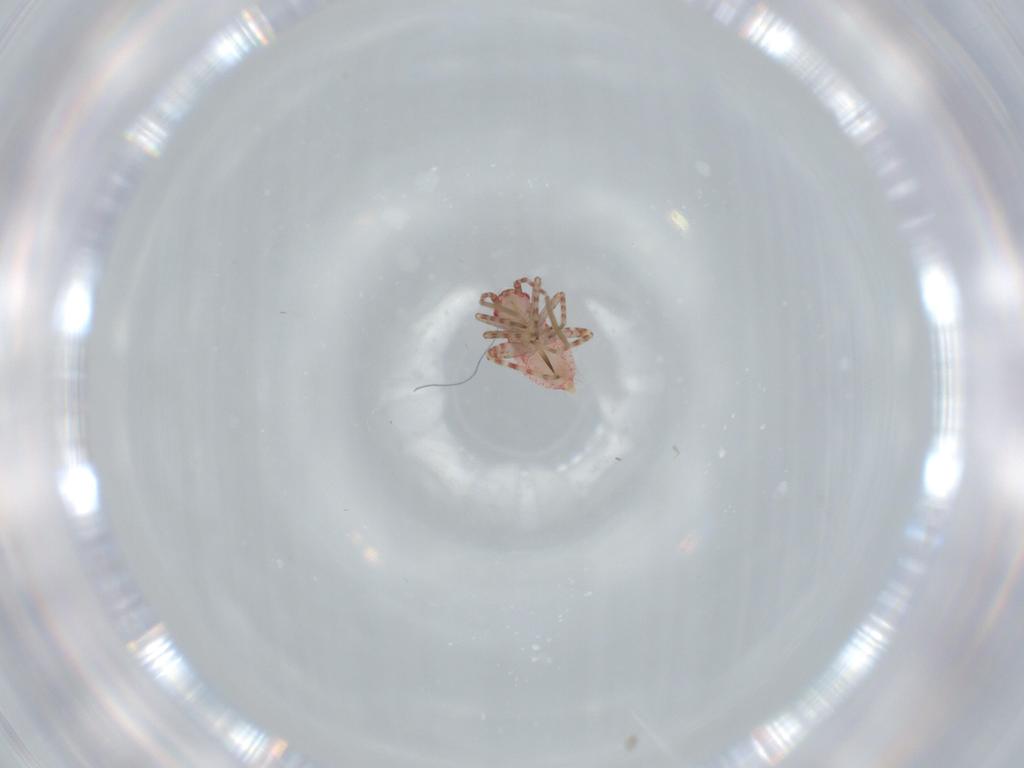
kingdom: Animalia
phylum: Arthropoda
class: Insecta
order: Hemiptera
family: Miridae
